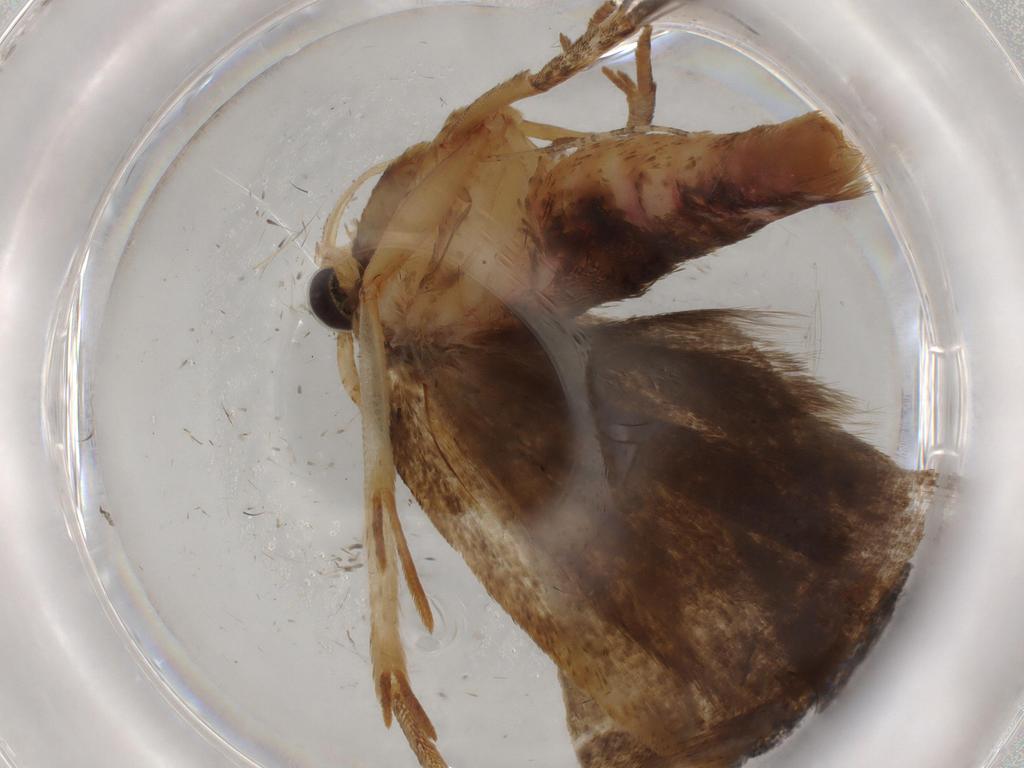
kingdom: Animalia
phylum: Arthropoda
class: Insecta
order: Lepidoptera
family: Autostichidae
